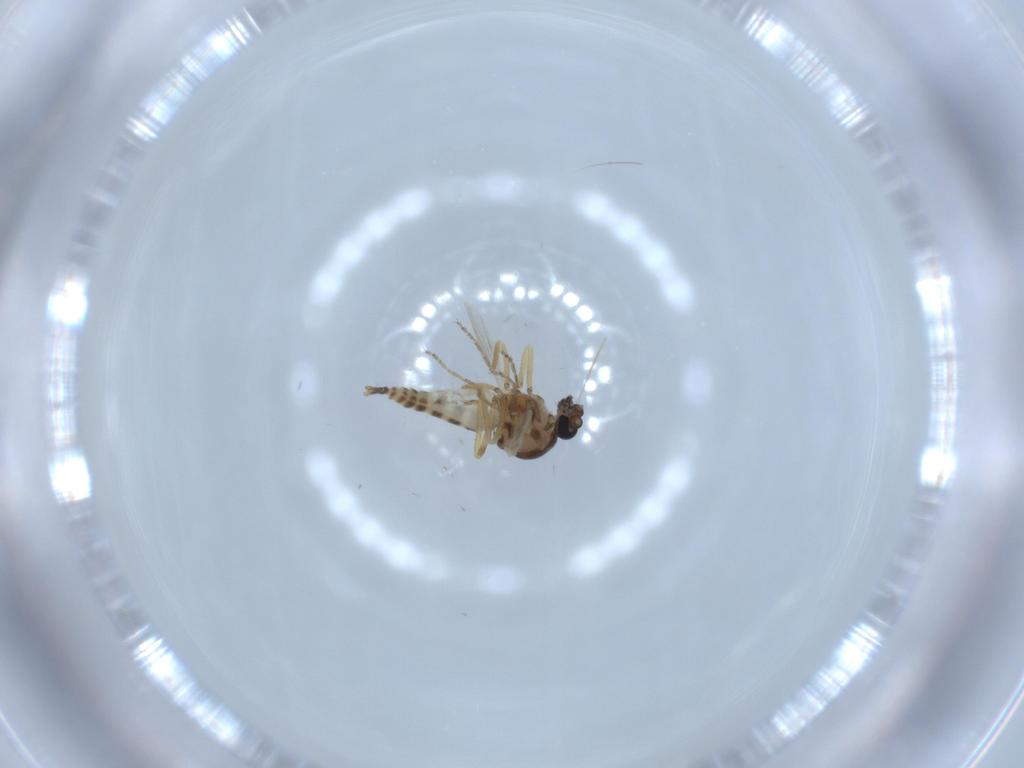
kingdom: Animalia
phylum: Arthropoda
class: Insecta
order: Diptera
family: Ceratopogonidae
